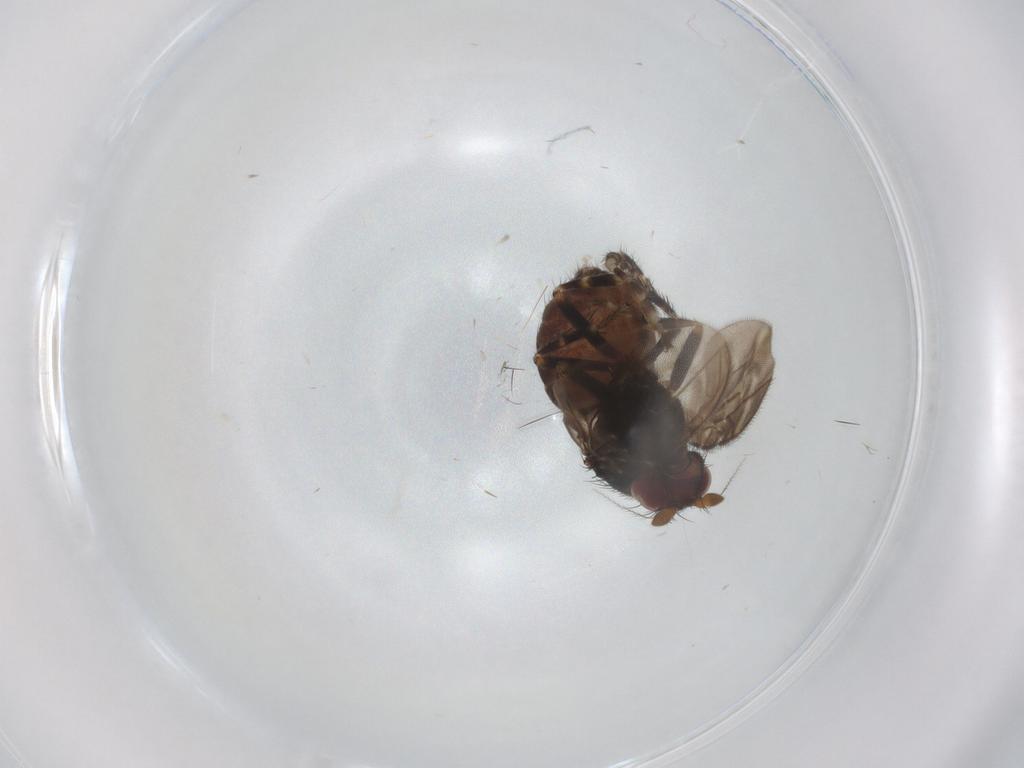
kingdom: Animalia
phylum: Arthropoda
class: Insecta
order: Diptera
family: Sphaeroceridae
